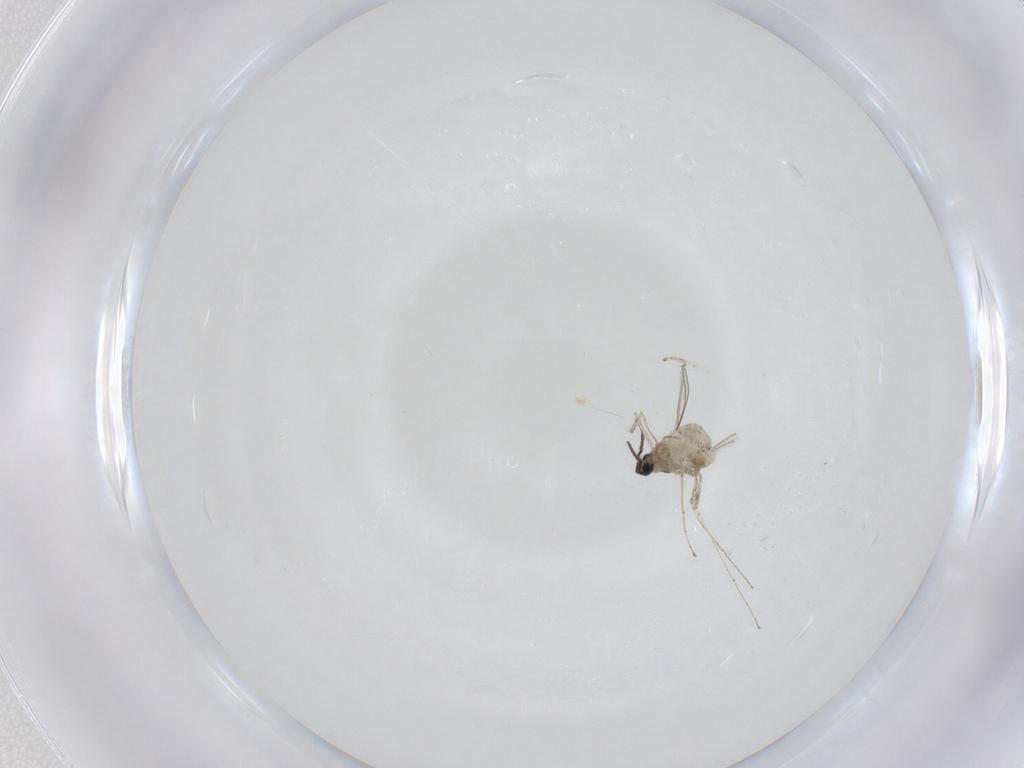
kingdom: Animalia
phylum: Arthropoda
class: Insecta
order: Diptera
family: Cecidomyiidae
